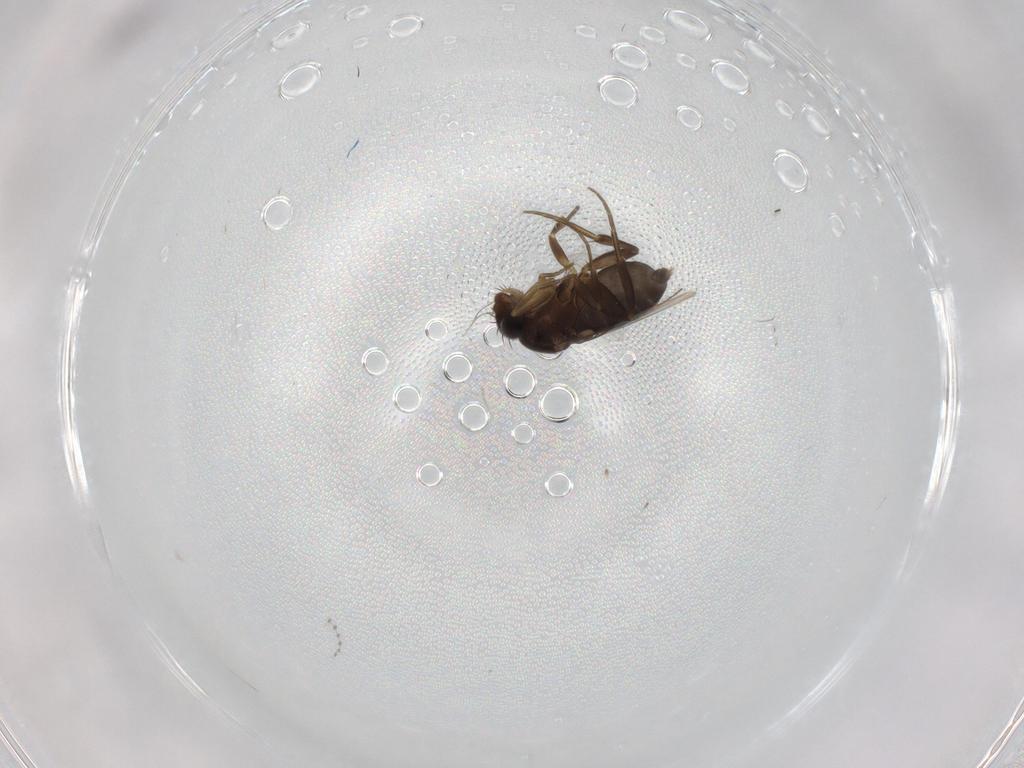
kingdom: Animalia
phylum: Arthropoda
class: Insecta
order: Diptera
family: Phoridae
